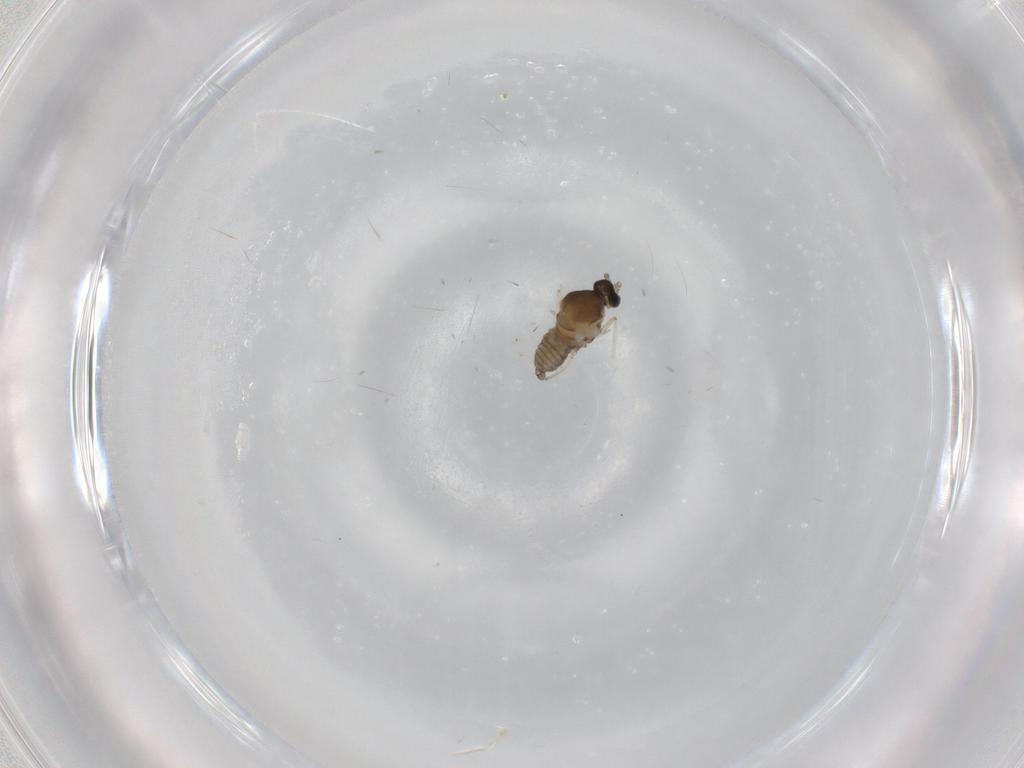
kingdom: Animalia
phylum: Arthropoda
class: Insecta
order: Diptera
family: Cecidomyiidae
